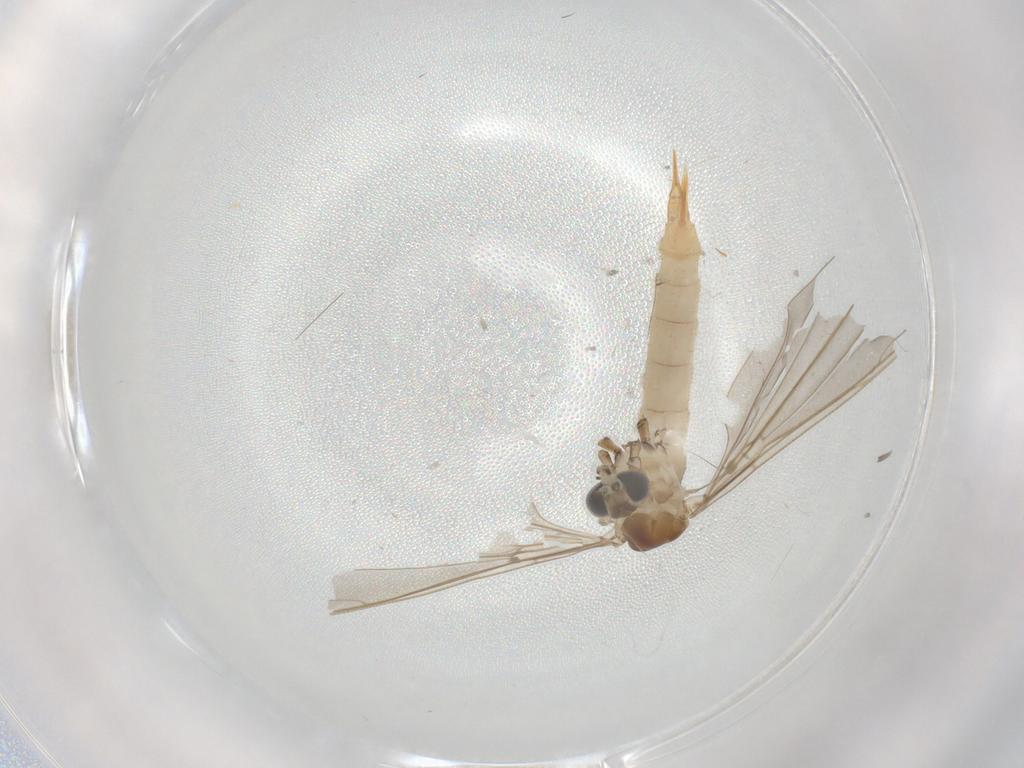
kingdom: Animalia
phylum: Arthropoda
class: Insecta
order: Diptera
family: Limoniidae
